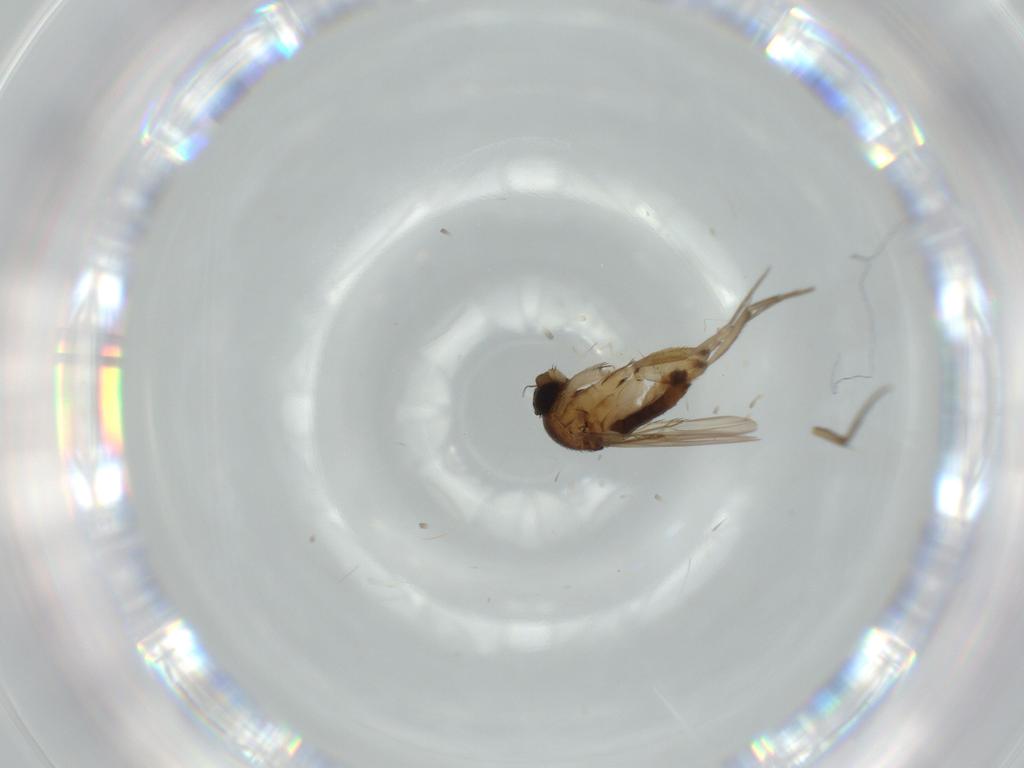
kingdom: Animalia
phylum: Arthropoda
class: Insecta
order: Diptera
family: Phoridae
